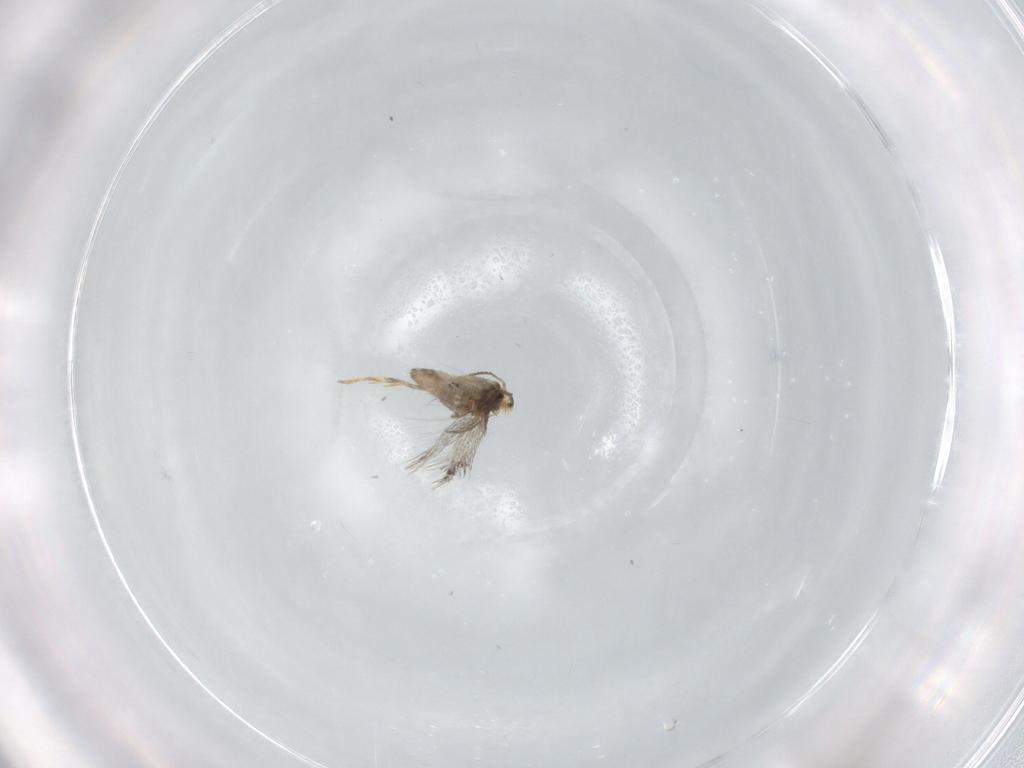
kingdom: Animalia
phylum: Arthropoda
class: Insecta
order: Lepidoptera
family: Nepticulidae
